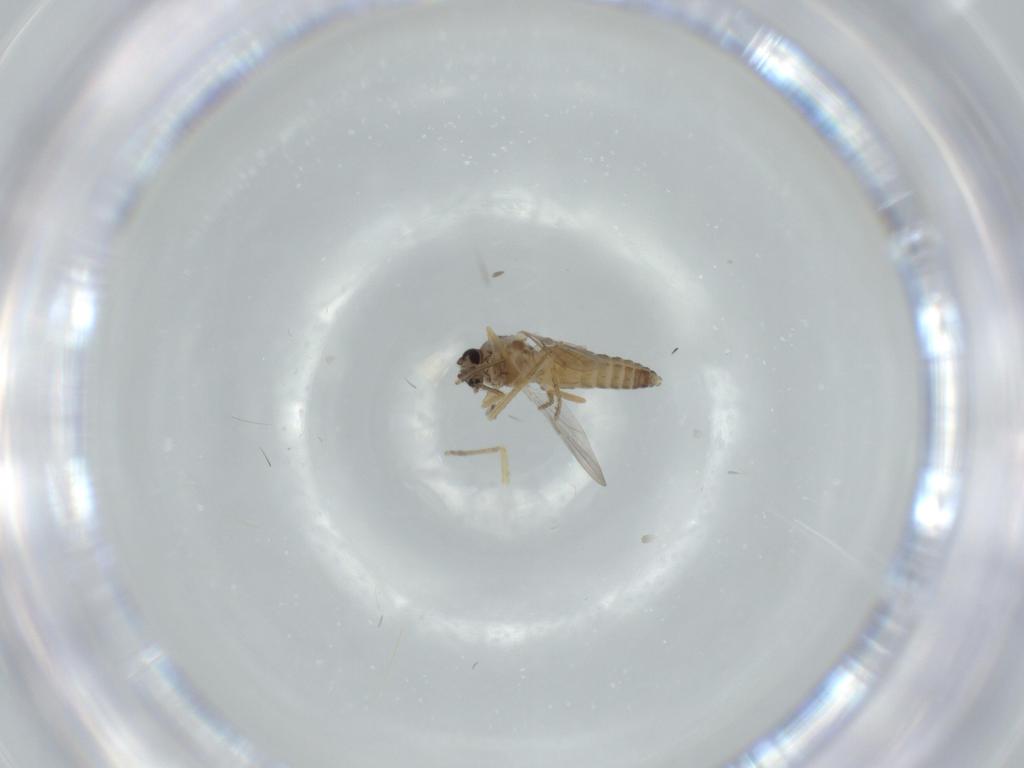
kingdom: Animalia
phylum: Arthropoda
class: Insecta
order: Diptera
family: Ceratopogonidae
